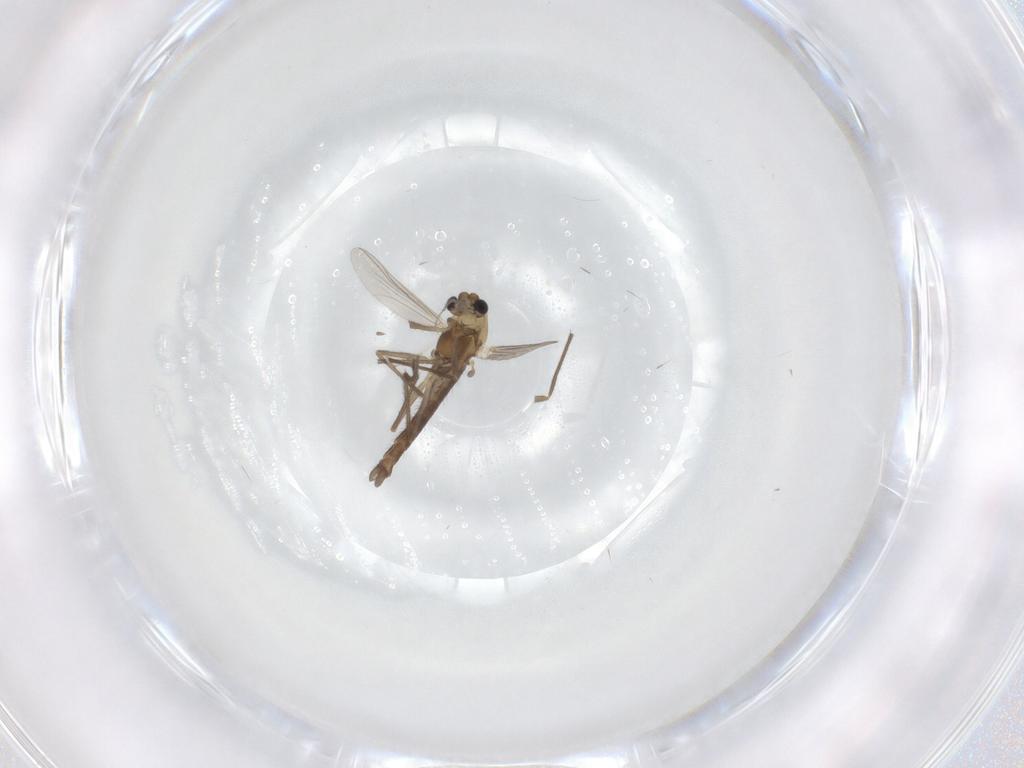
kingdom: Animalia
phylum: Arthropoda
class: Insecta
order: Diptera
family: Chironomidae
